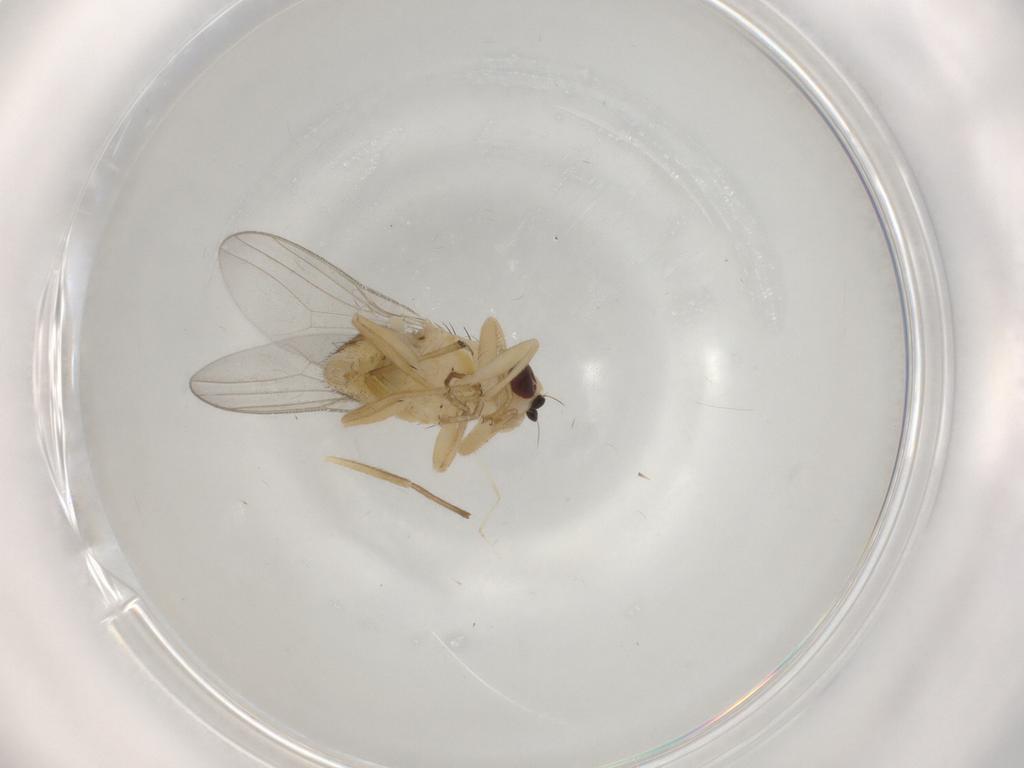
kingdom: Animalia
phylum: Arthropoda
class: Insecta
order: Diptera
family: Chloropidae
